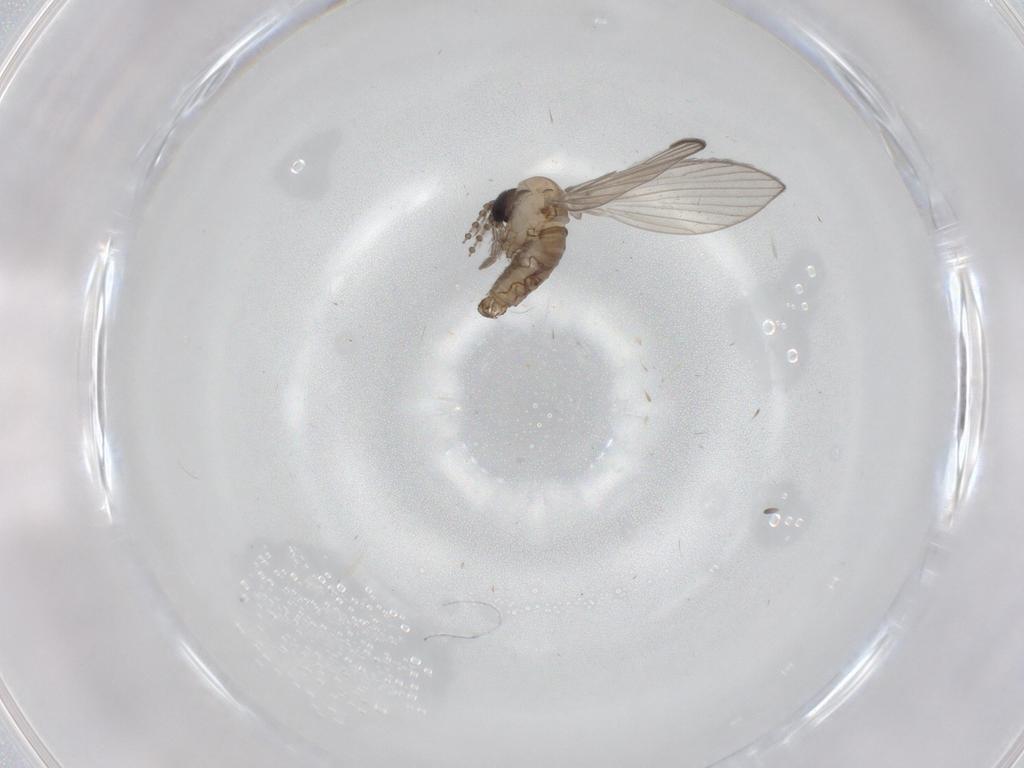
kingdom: Animalia
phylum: Arthropoda
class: Insecta
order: Diptera
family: Psychodidae
